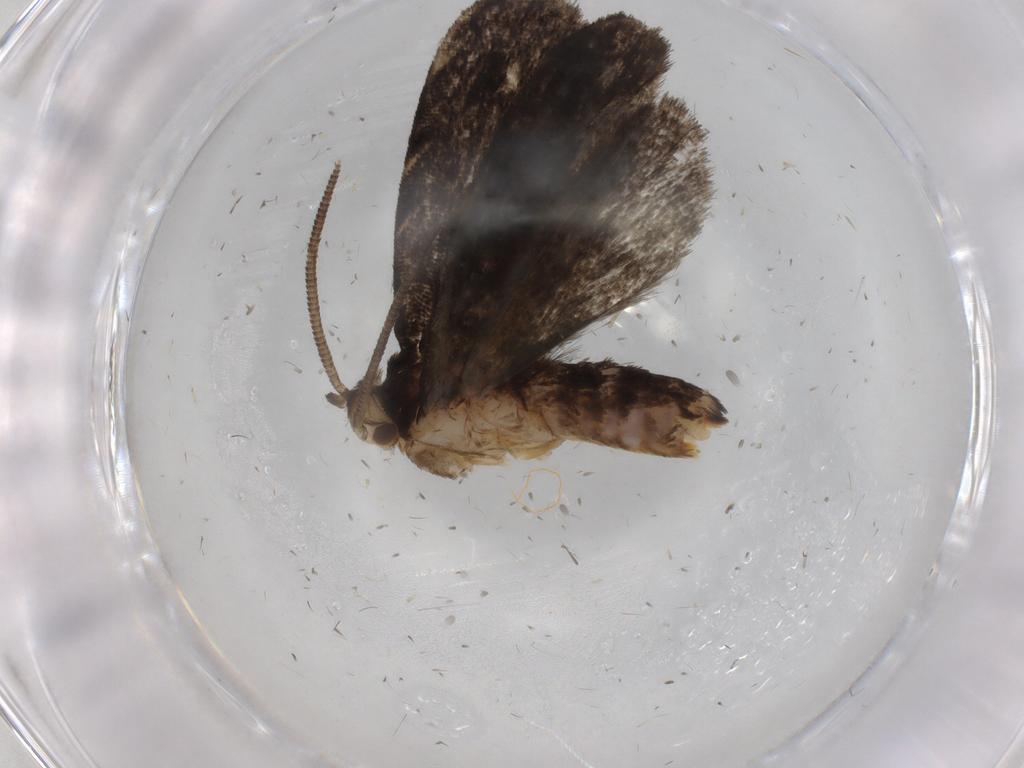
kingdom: Animalia
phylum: Arthropoda
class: Insecta
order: Lepidoptera
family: Dryadaulidae
